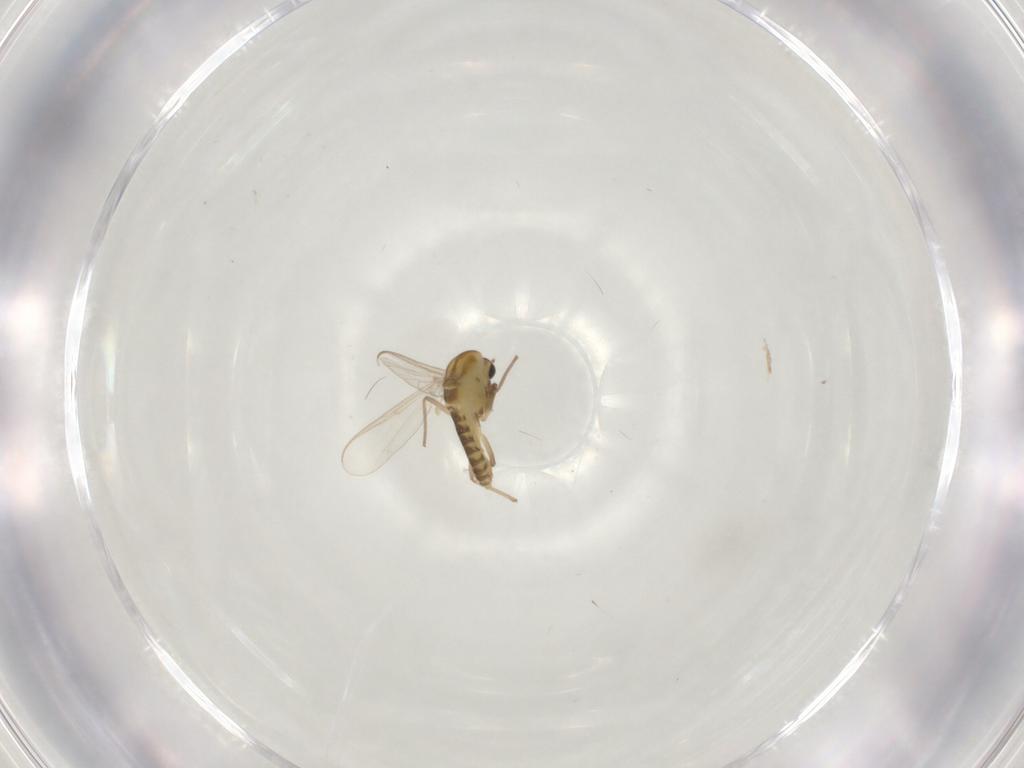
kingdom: Animalia
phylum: Arthropoda
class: Insecta
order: Diptera
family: Chironomidae
